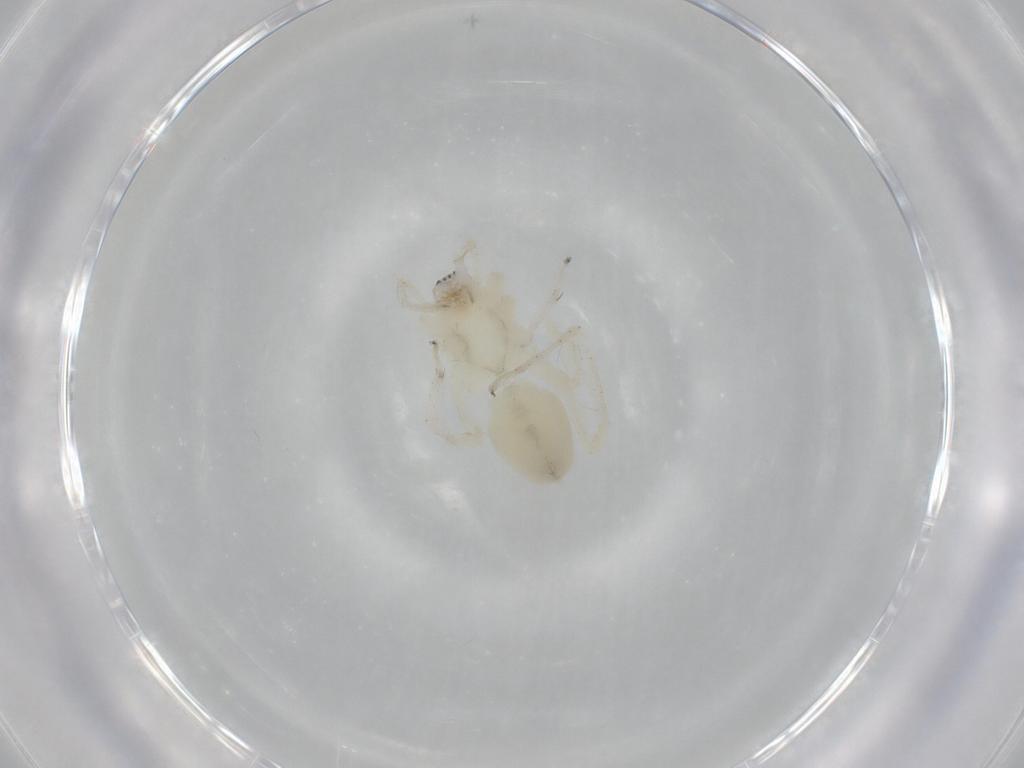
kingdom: Animalia
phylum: Arthropoda
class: Arachnida
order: Araneae
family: Anyphaenidae
